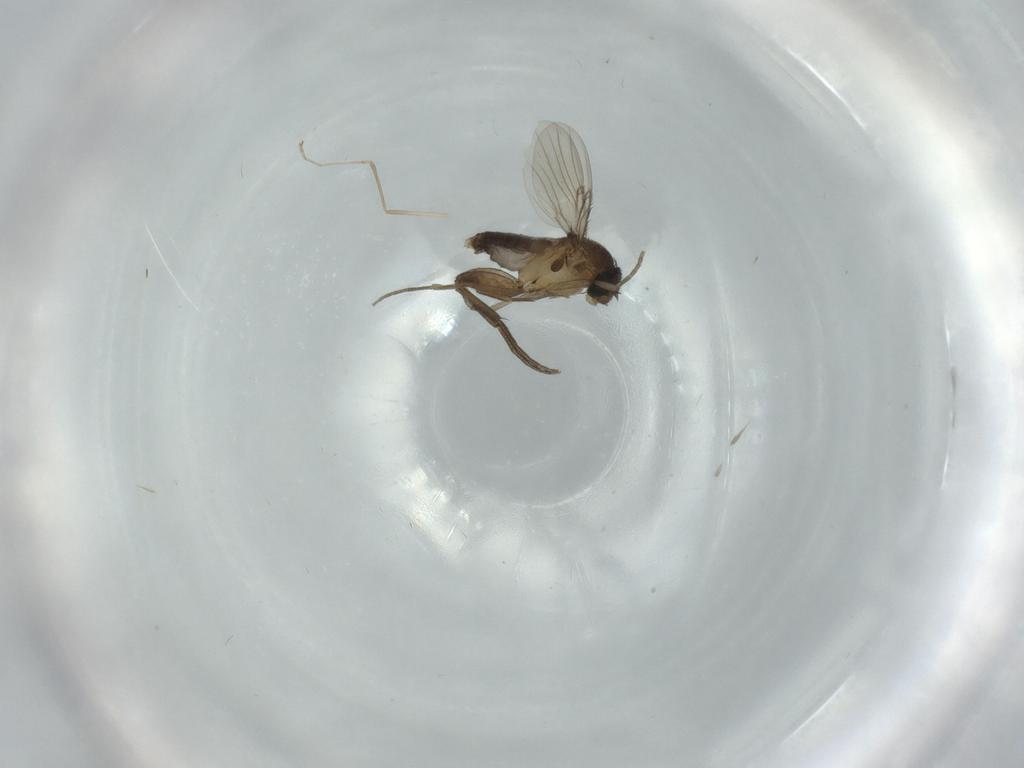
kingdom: Animalia
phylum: Arthropoda
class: Insecta
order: Diptera
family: Phoridae
